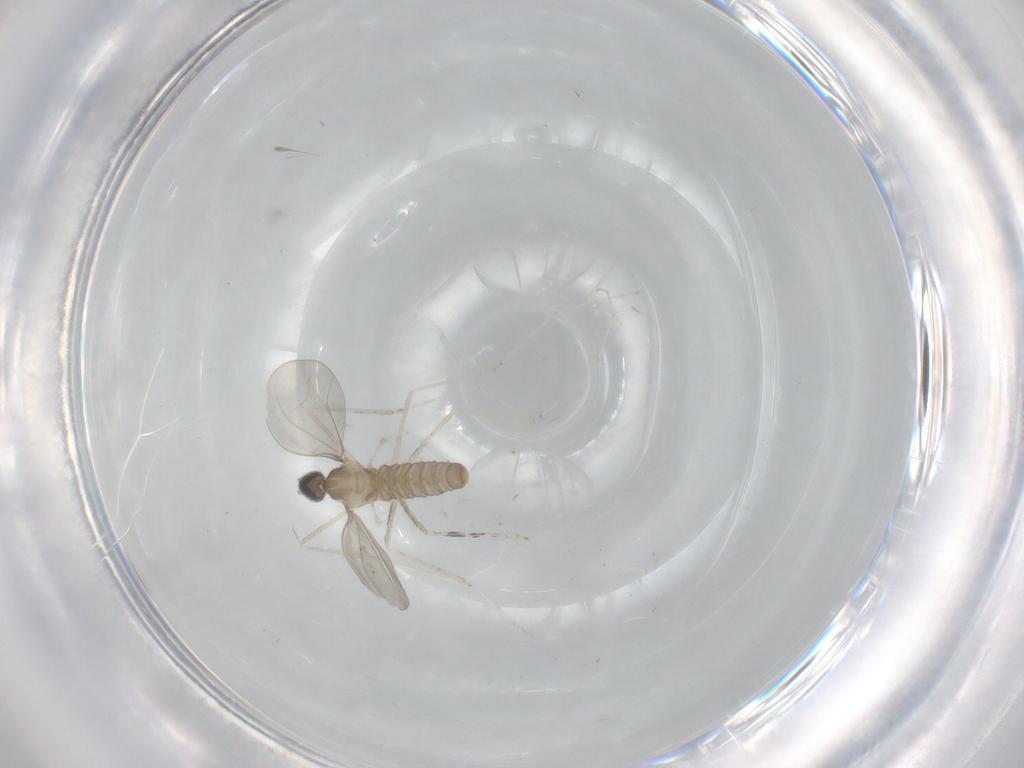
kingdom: Animalia
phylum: Arthropoda
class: Insecta
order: Diptera
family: Cecidomyiidae
